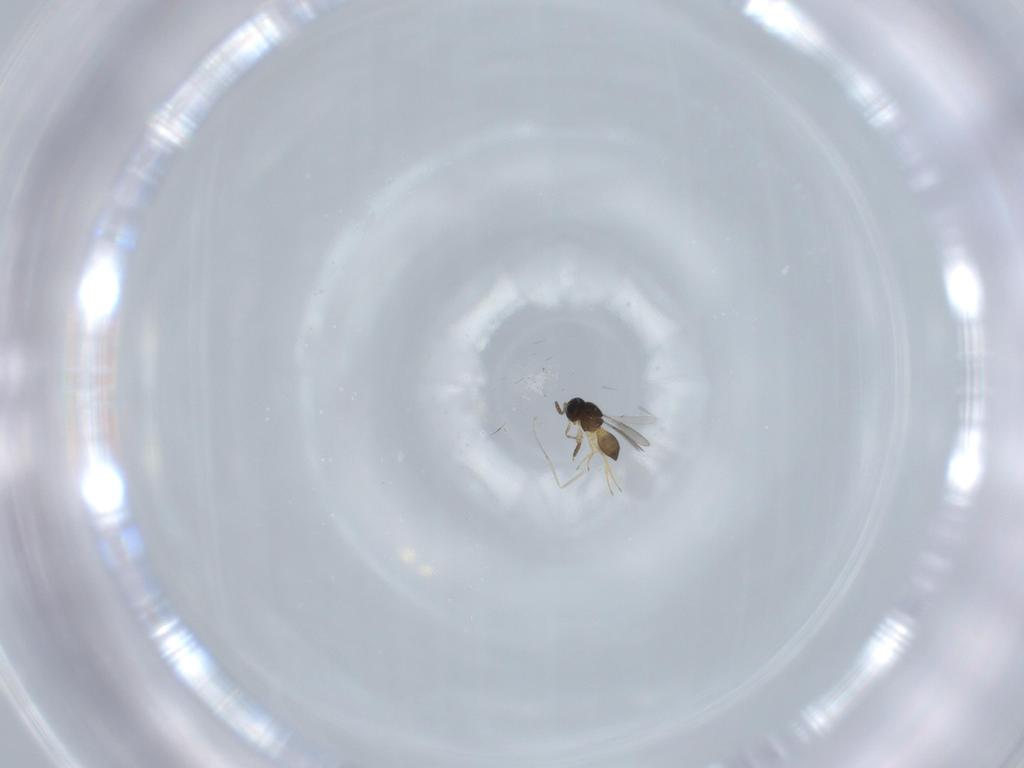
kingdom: Animalia
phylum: Arthropoda
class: Insecta
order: Hymenoptera
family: Scelionidae
